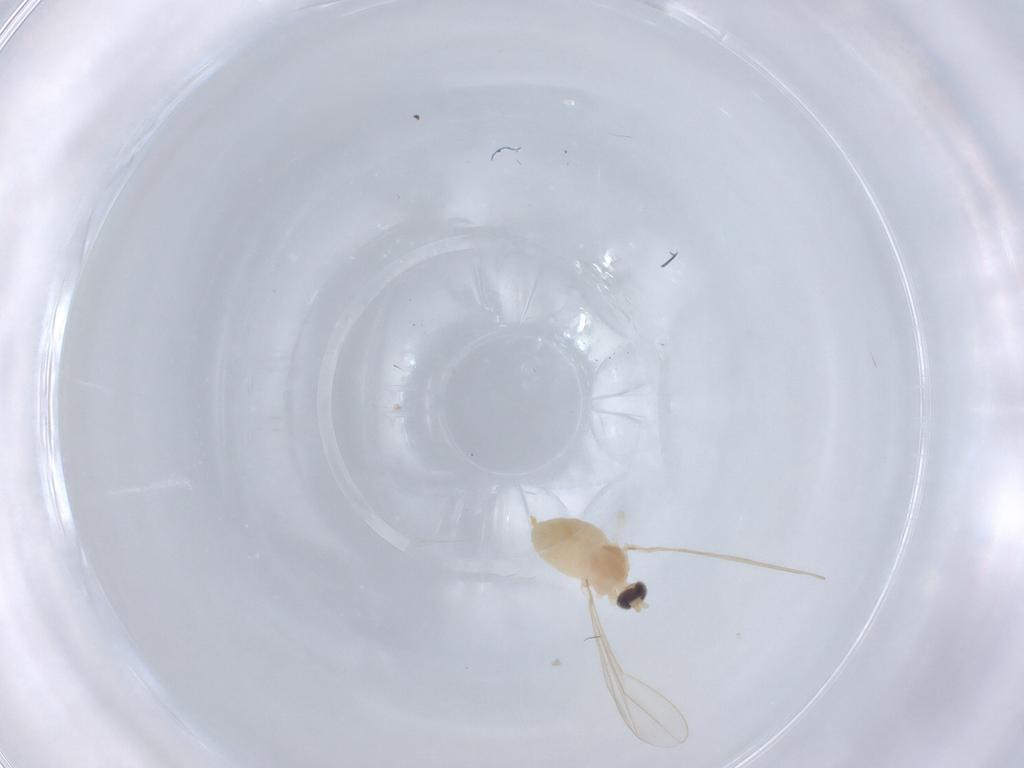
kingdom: Animalia
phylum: Arthropoda
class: Insecta
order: Diptera
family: Cecidomyiidae
